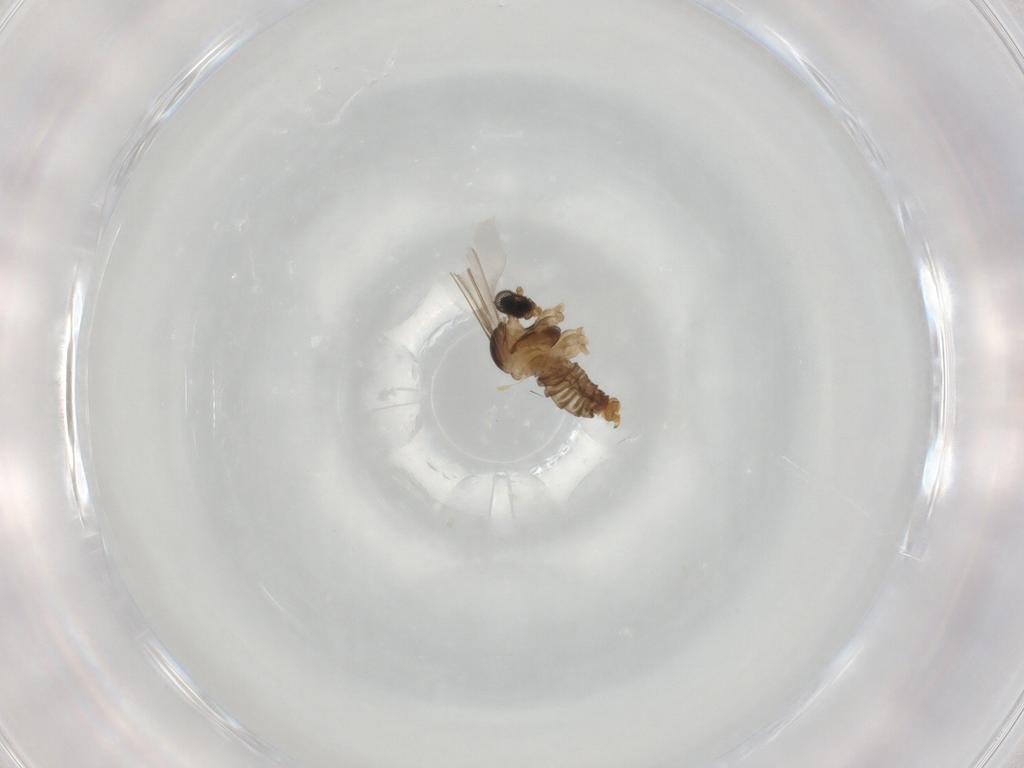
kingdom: Animalia
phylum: Arthropoda
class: Insecta
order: Diptera
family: Cecidomyiidae
